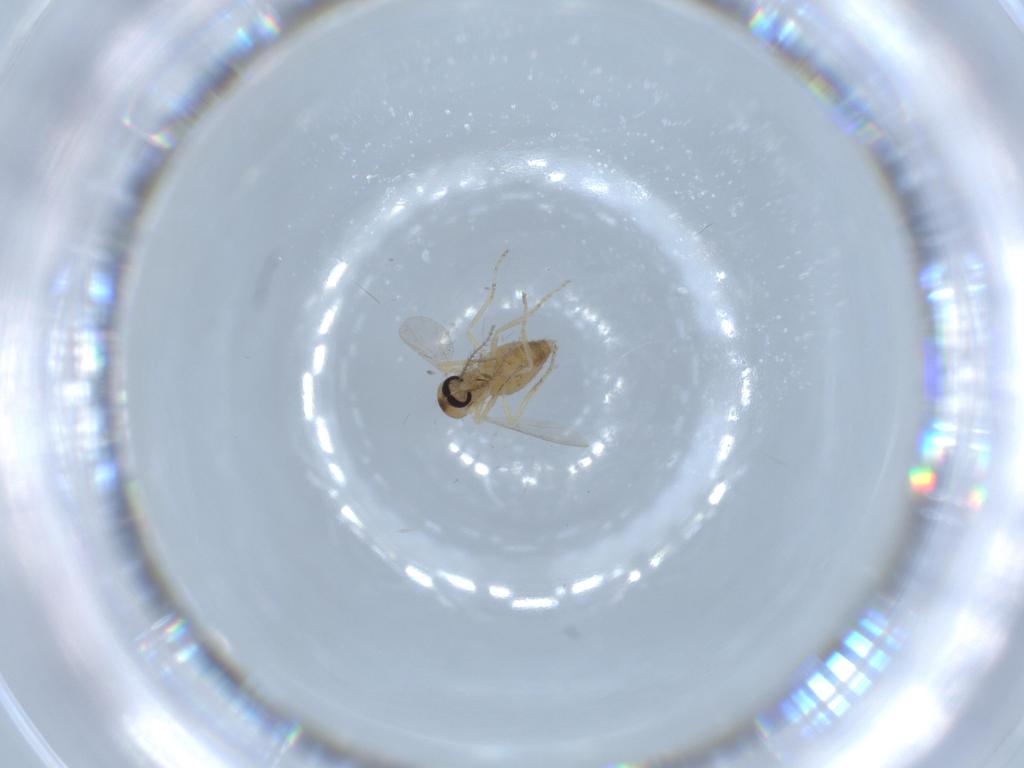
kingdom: Animalia
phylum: Arthropoda
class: Insecta
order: Diptera
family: Ceratopogonidae
